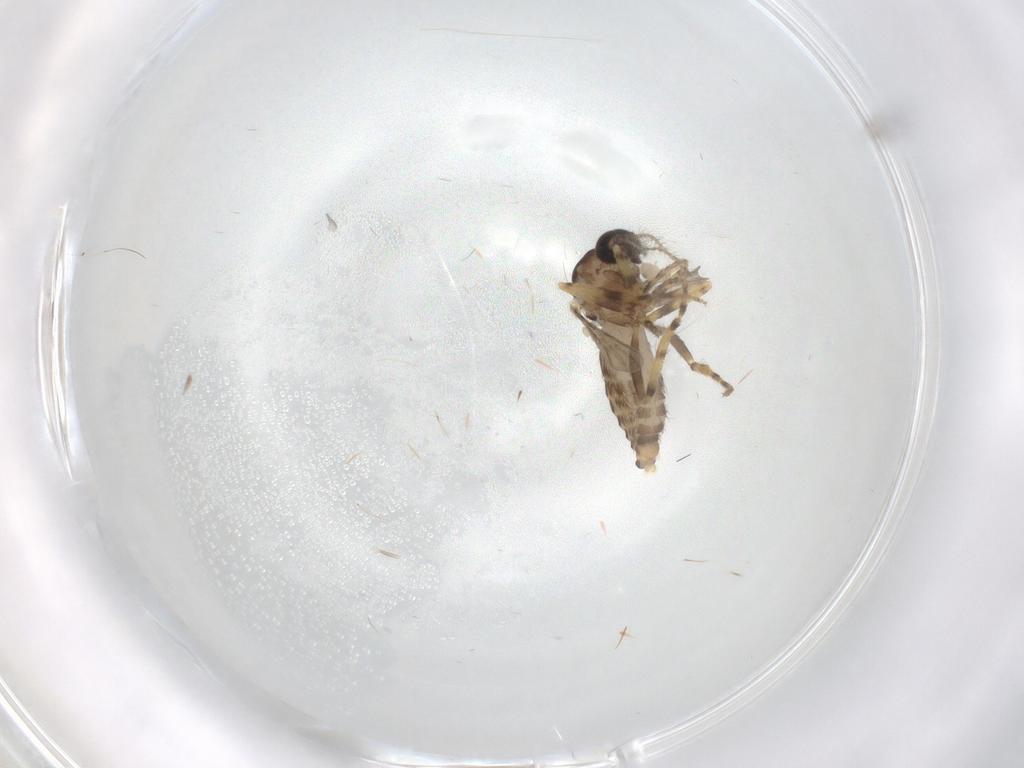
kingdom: Animalia
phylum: Arthropoda
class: Insecta
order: Diptera
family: Ceratopogonidae
